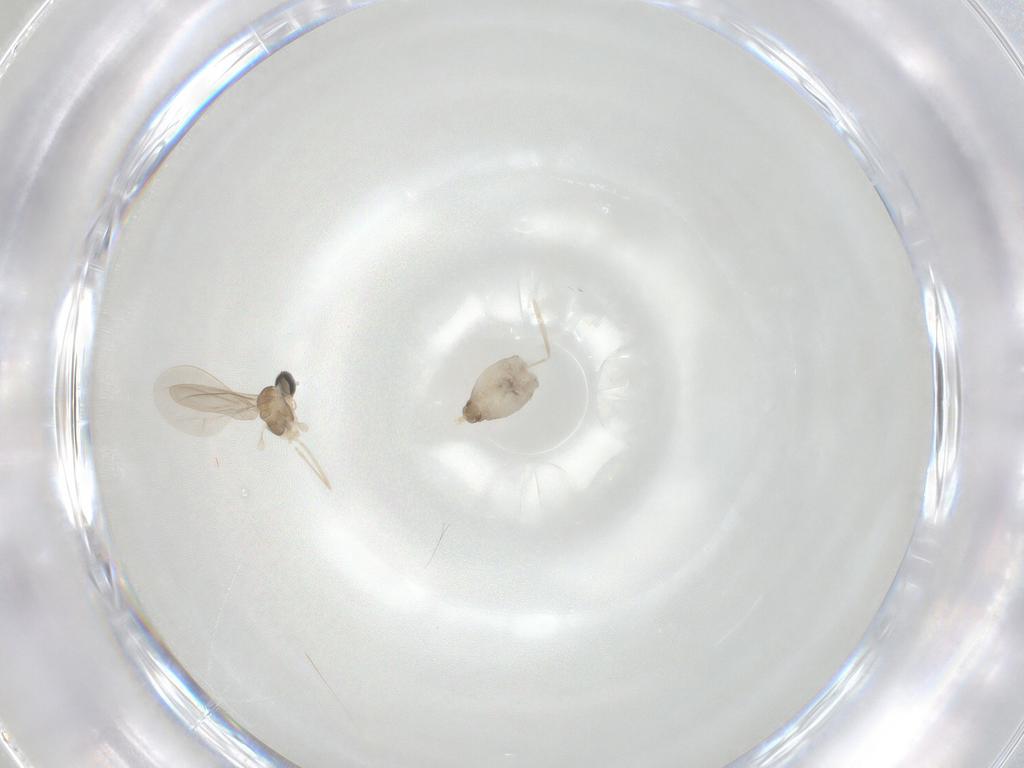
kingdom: Animalia
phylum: Arthropoda
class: Insecta
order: Diptera
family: Cecidomyiidae
